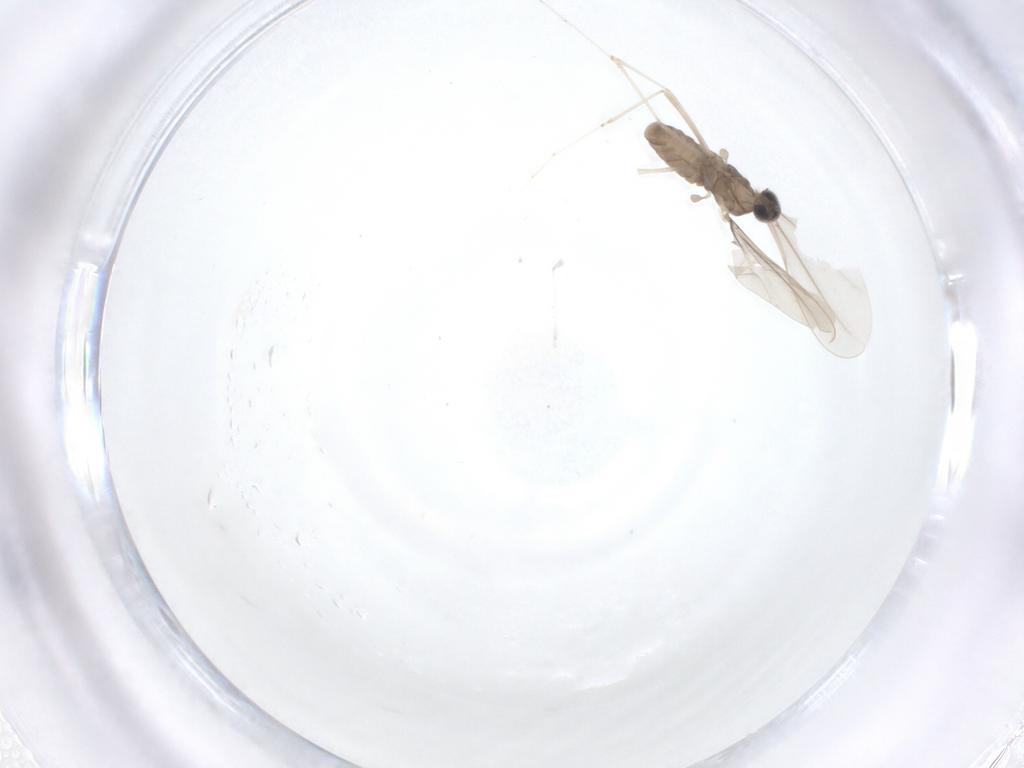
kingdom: Animalia
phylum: Arthropoda
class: Insecta
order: Diptera
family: Cecidomyiidae
